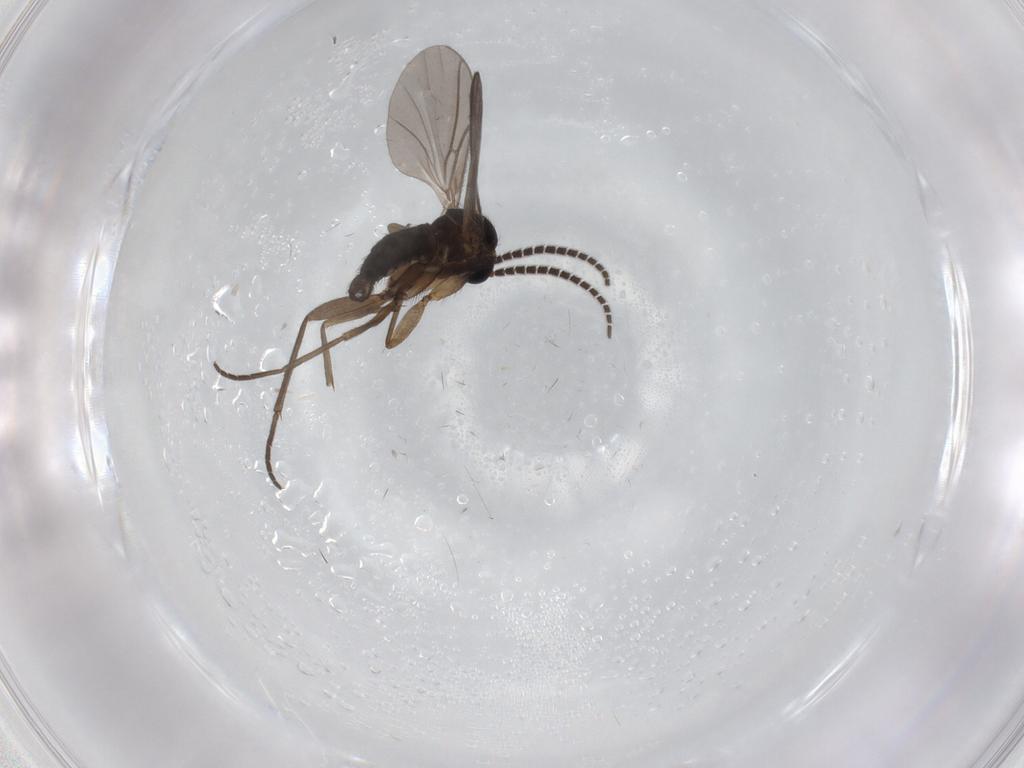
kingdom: Animalia
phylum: Arthropoda
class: Insecta
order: Diptera
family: Sciaridae
